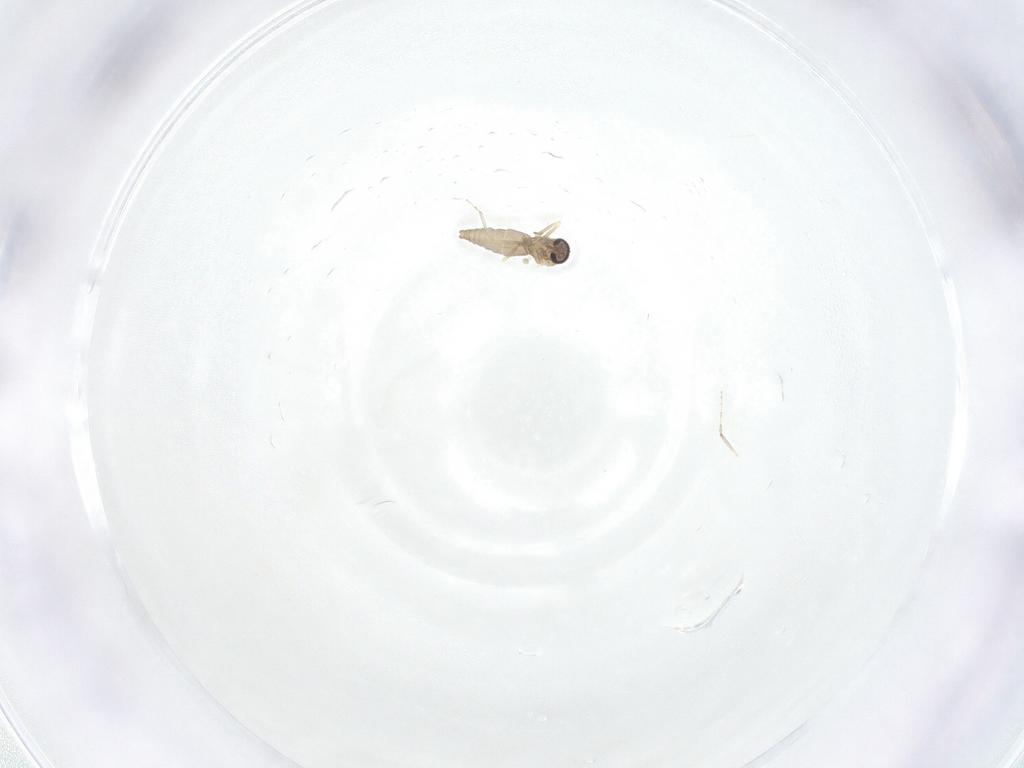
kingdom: Animalia
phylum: Arthropoda
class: Insecta
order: Diptera
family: Ceratopogonidae
